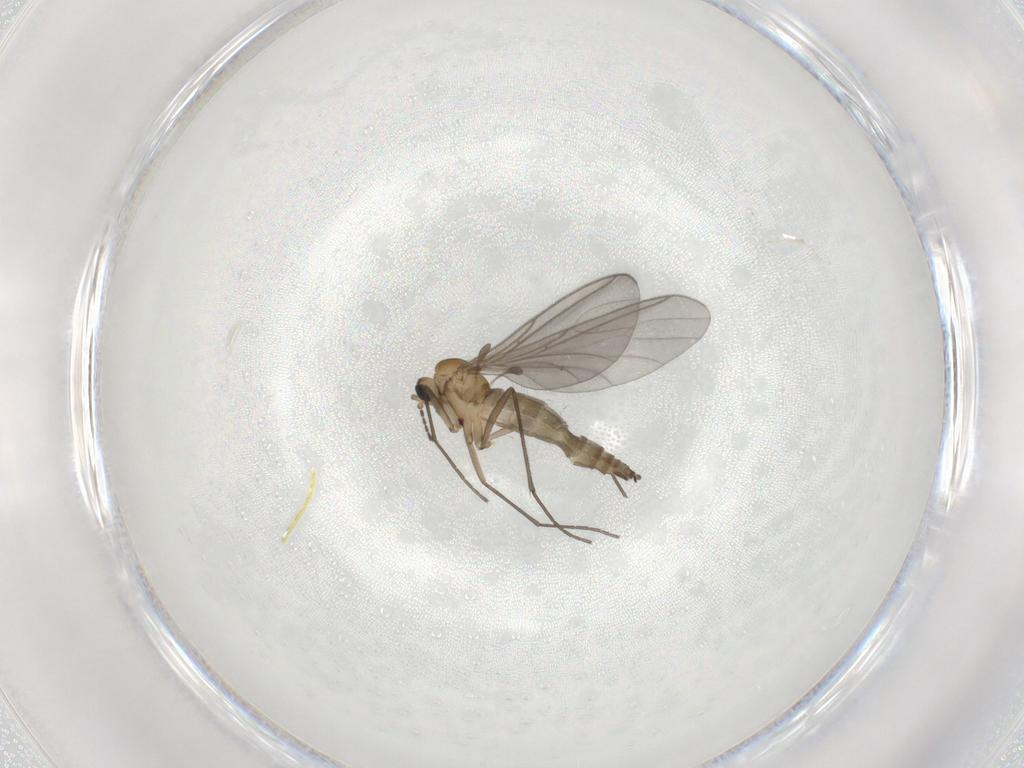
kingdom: Animalia
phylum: Arthropoda
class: Insecta
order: Diptera
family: Sciaridae
